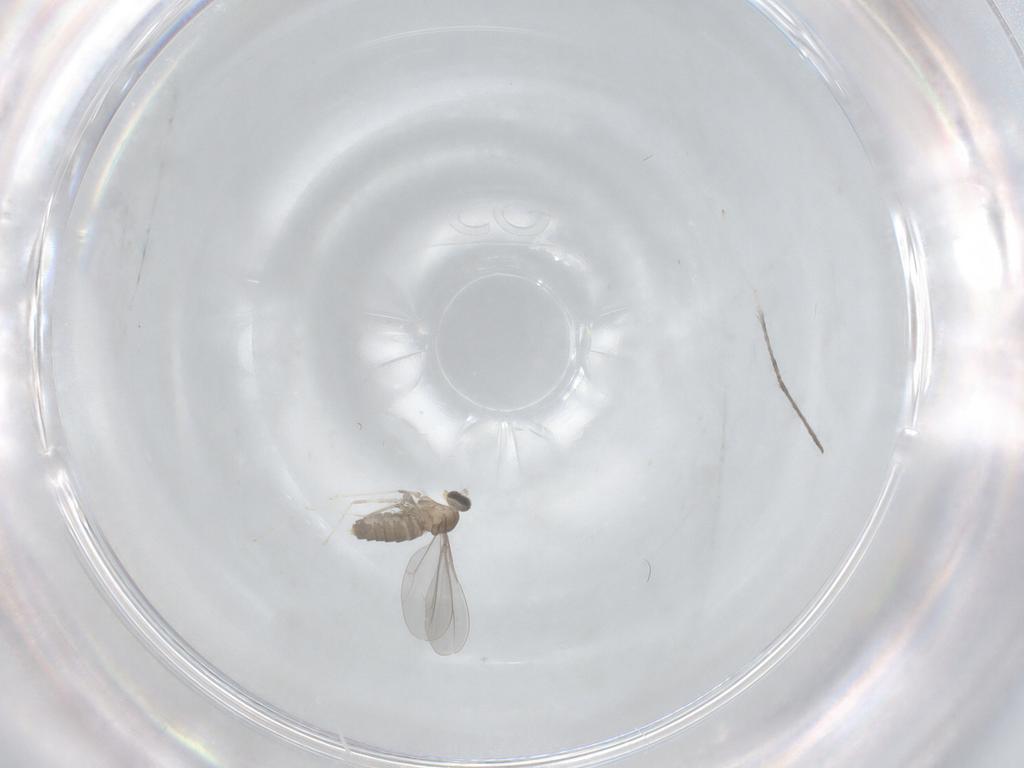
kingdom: Animalia
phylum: Arthropoda
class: Insecta
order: Diptera
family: Cecidomyiidae
